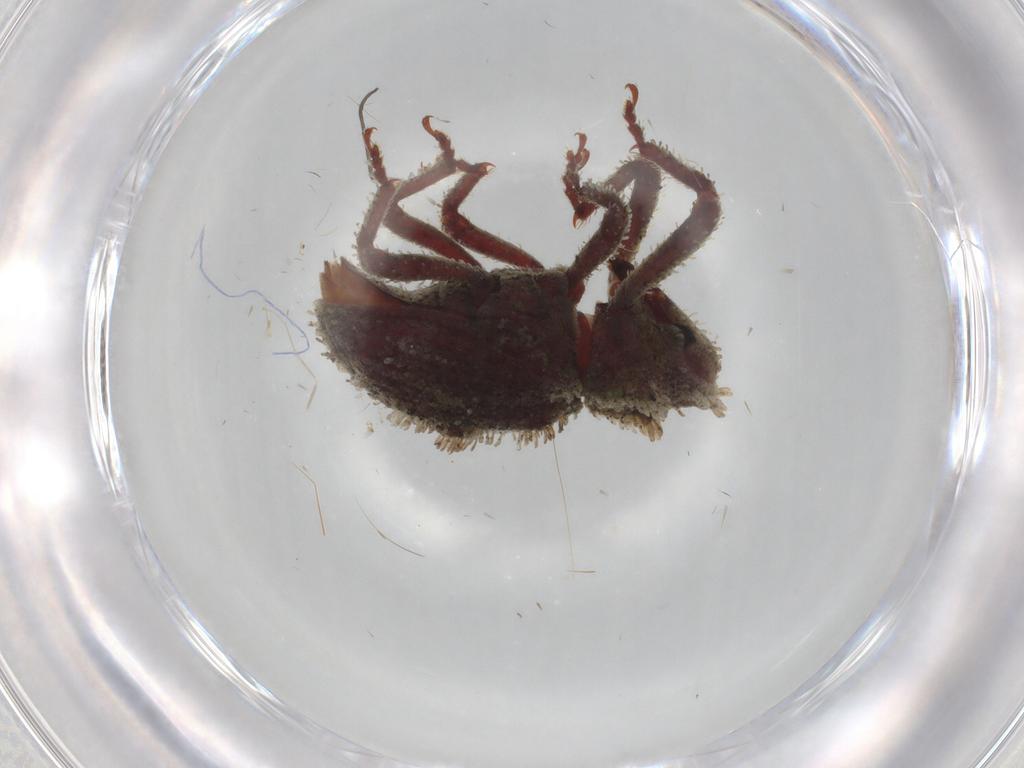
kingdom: Animalia
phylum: Arthropoda
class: Insecta
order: Coleoptera
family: Curculionidae
